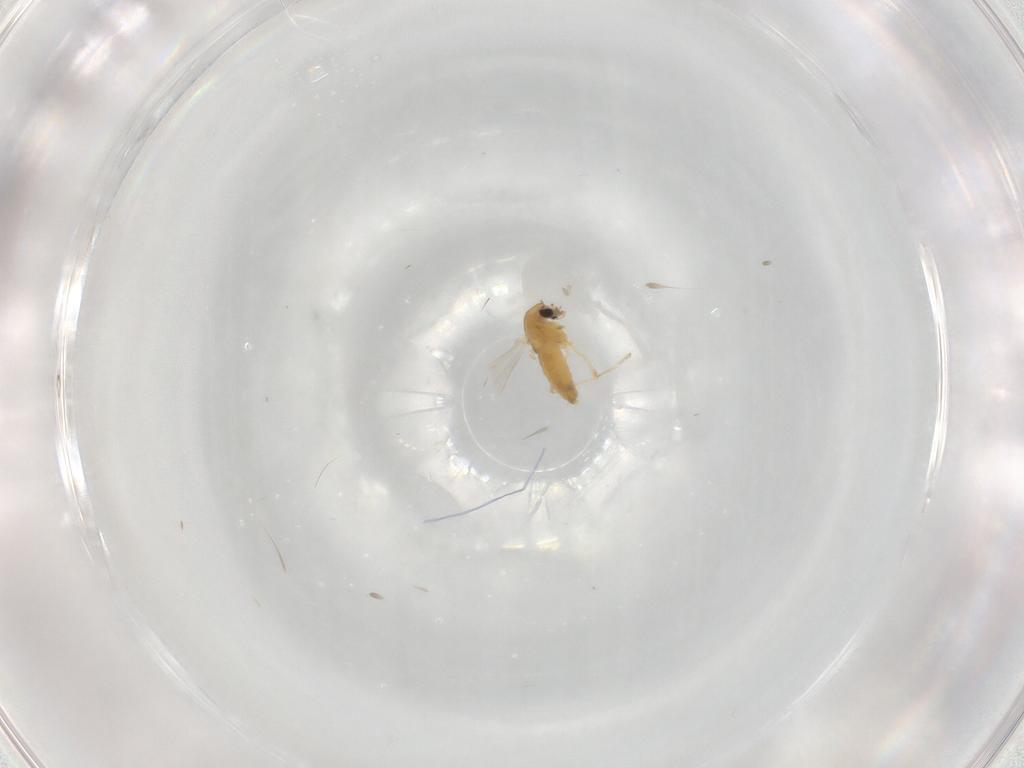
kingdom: Animalia
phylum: Arthropoda
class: Insecta
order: Diptera
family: Chironomidae
